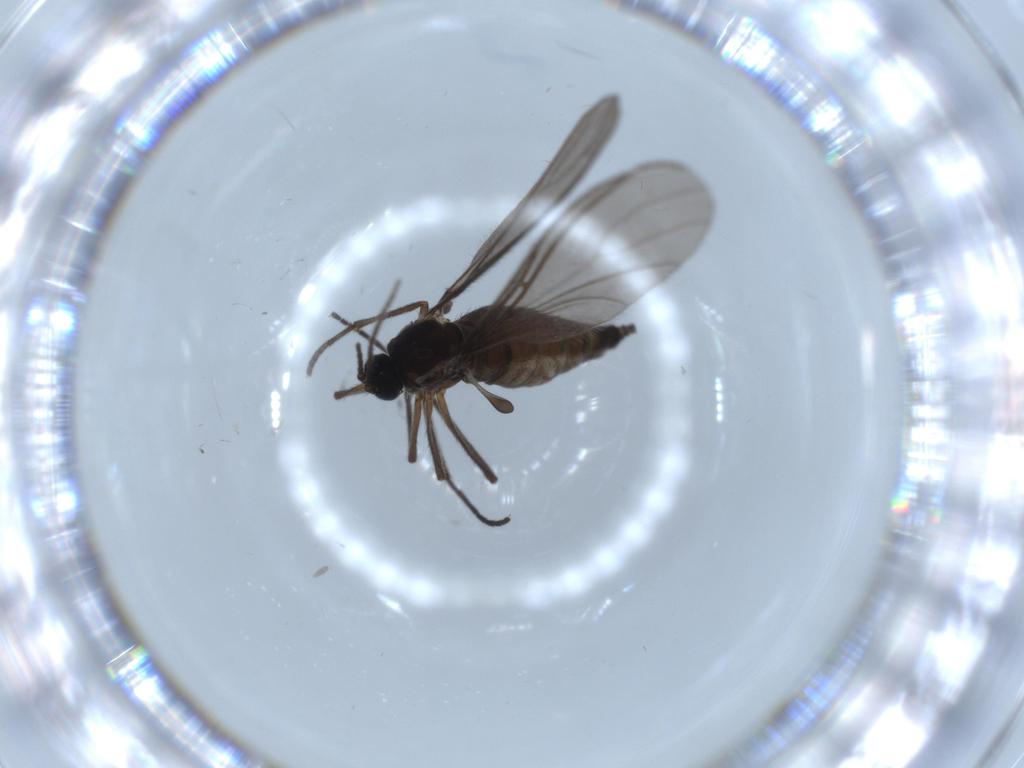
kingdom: Animalia
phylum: Arthropoda
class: Insecta
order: Diptera
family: Sciaridae
